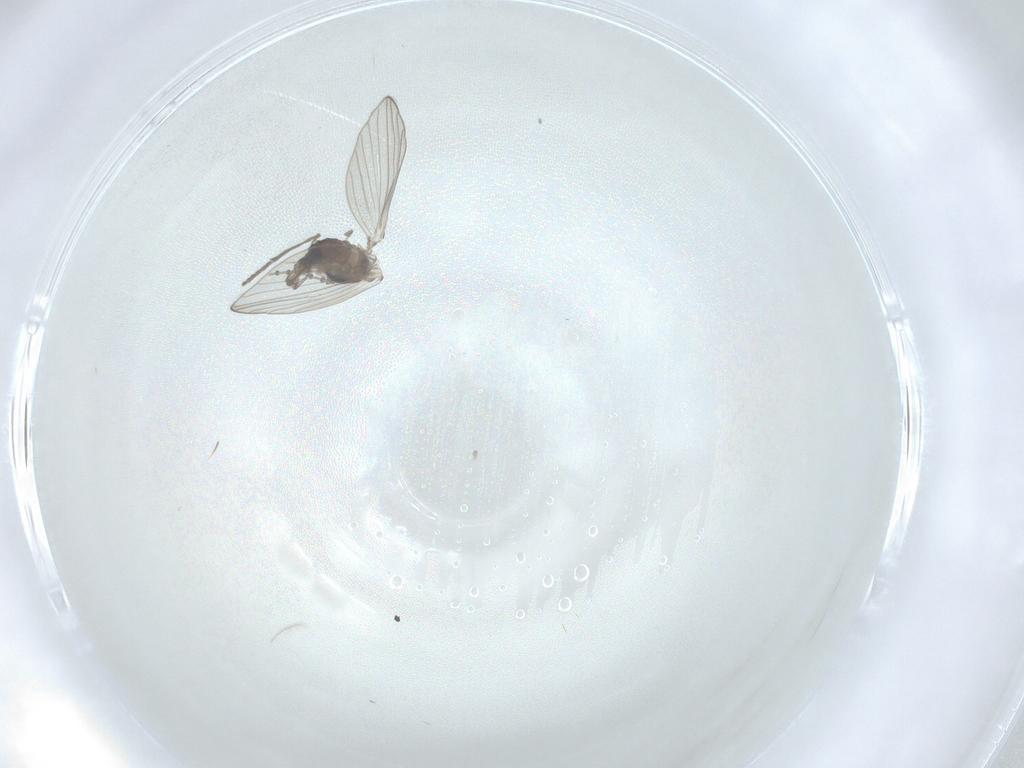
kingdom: Animalia
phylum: Arthropoda
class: Insecta
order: Diptera
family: Psychodidae
